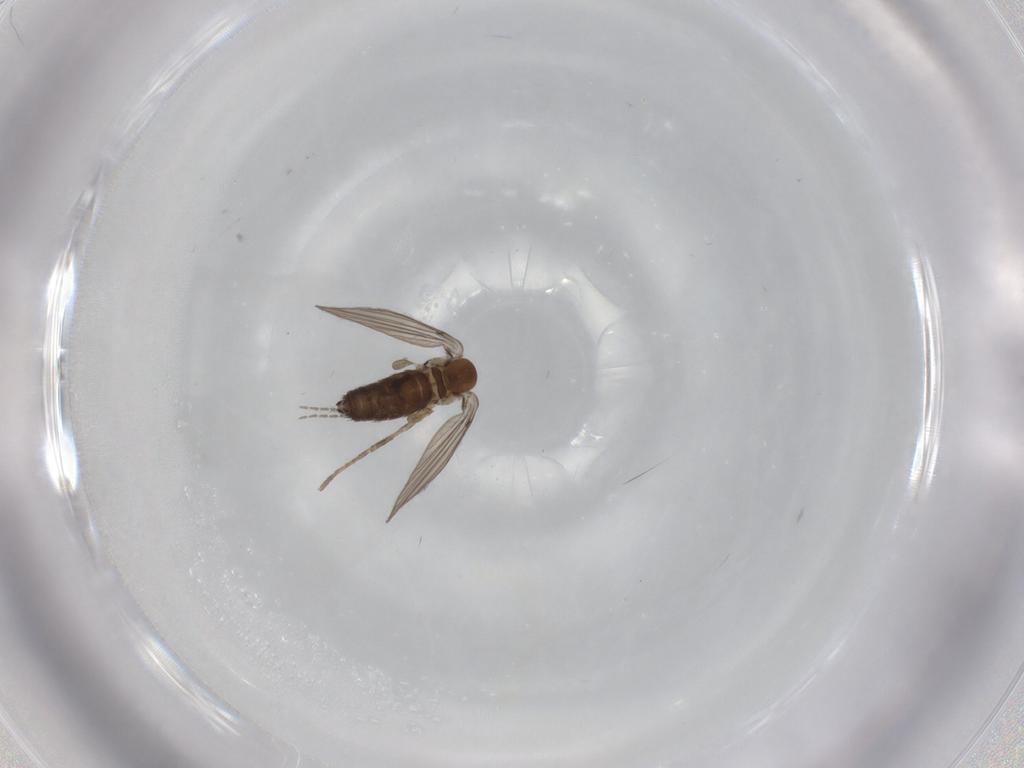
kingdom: Animalia
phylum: Arthropoda
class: Insecta
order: Diptera
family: Psychodidae
